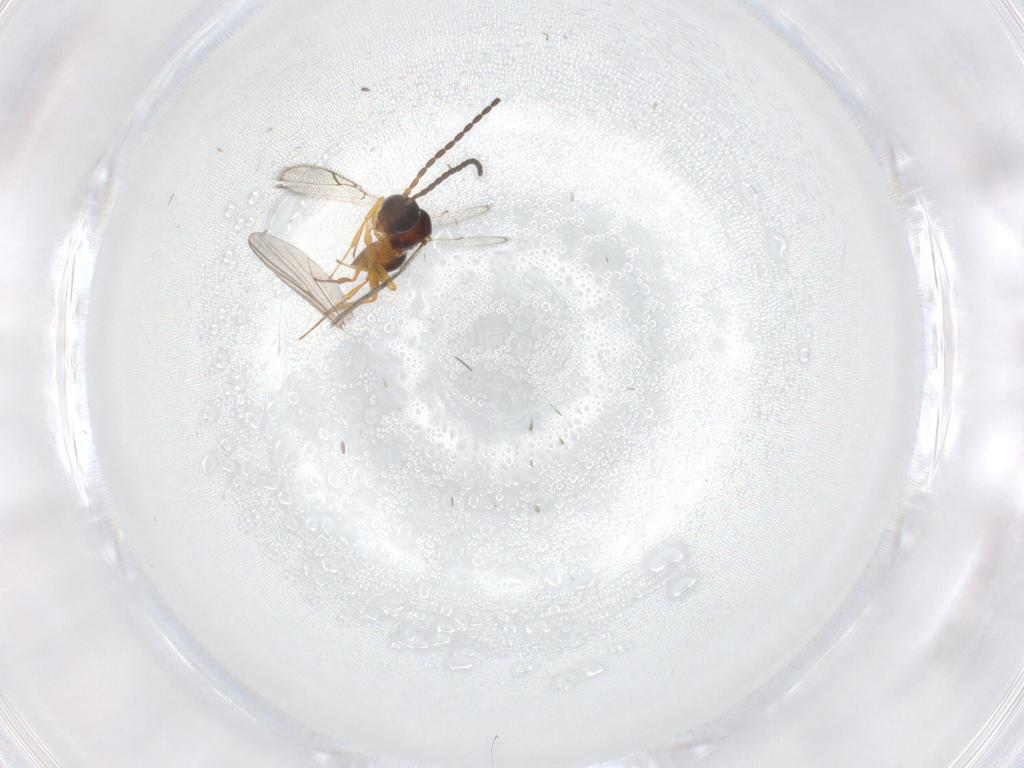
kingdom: Animalia
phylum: Arthropoda
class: Insecta
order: Hymenoptera
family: Figitidae
